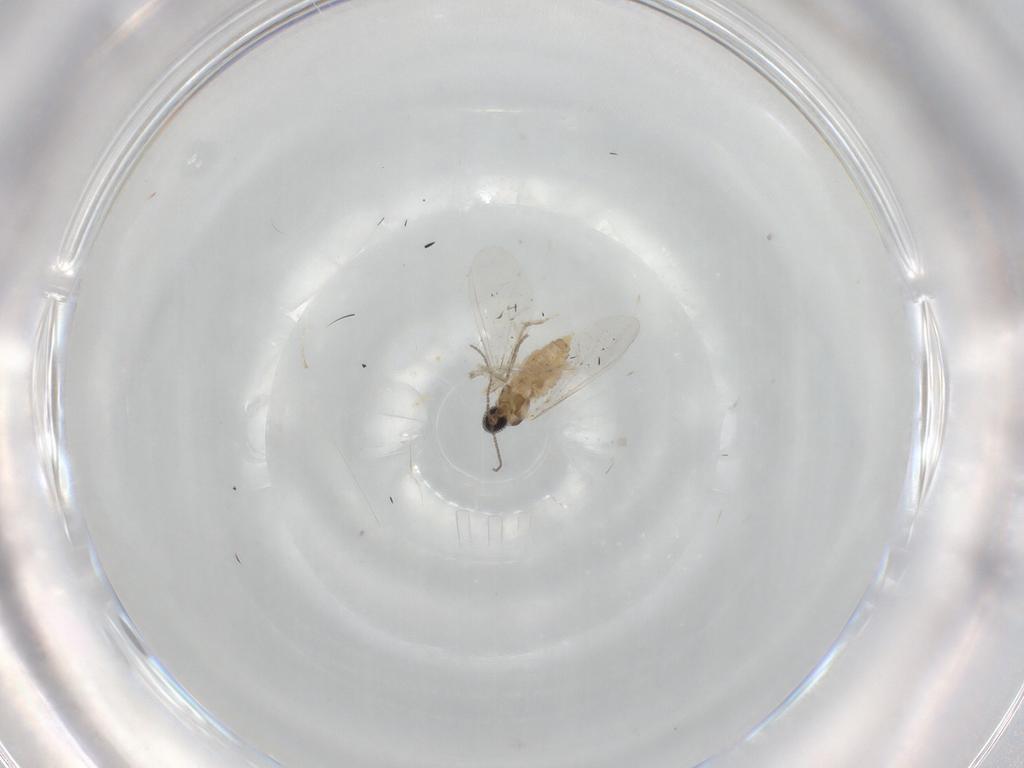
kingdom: Animalia
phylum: Arthropoda
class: Insecta
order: Diptera
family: Cecidomyiidae
